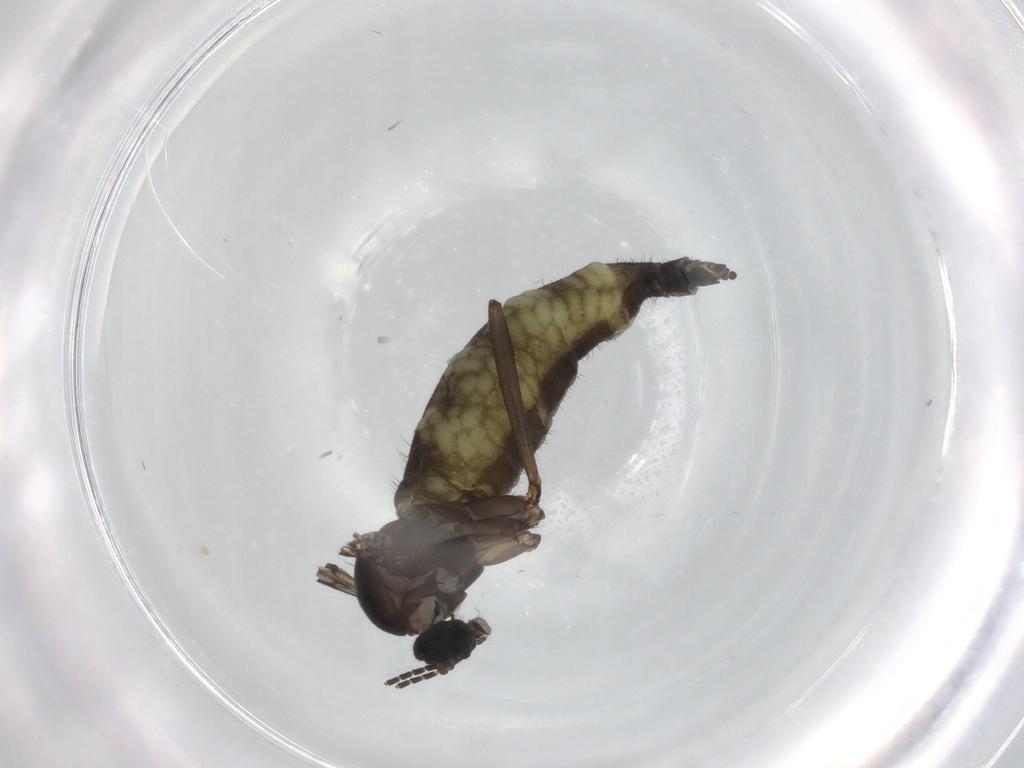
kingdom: Animalia
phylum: Arthropoda
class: Insecta
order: Diptera
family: Sciaridae
